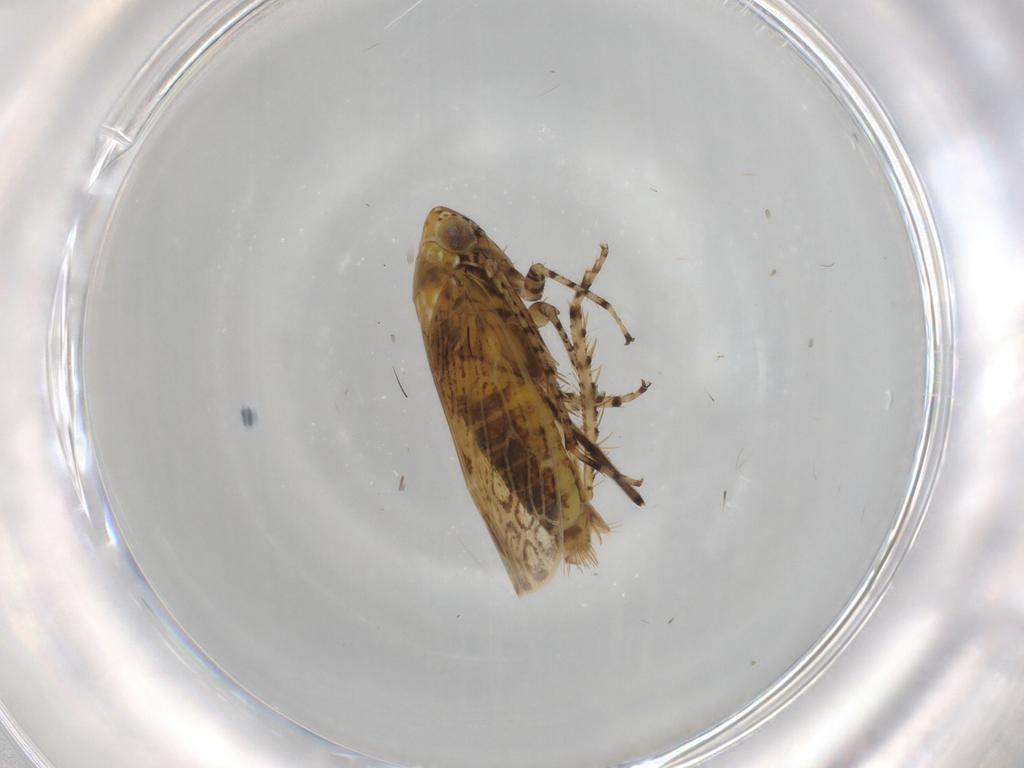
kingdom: Animalia
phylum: Arthropoda
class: Insecta
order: Hemiptera
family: Cicadellidae
